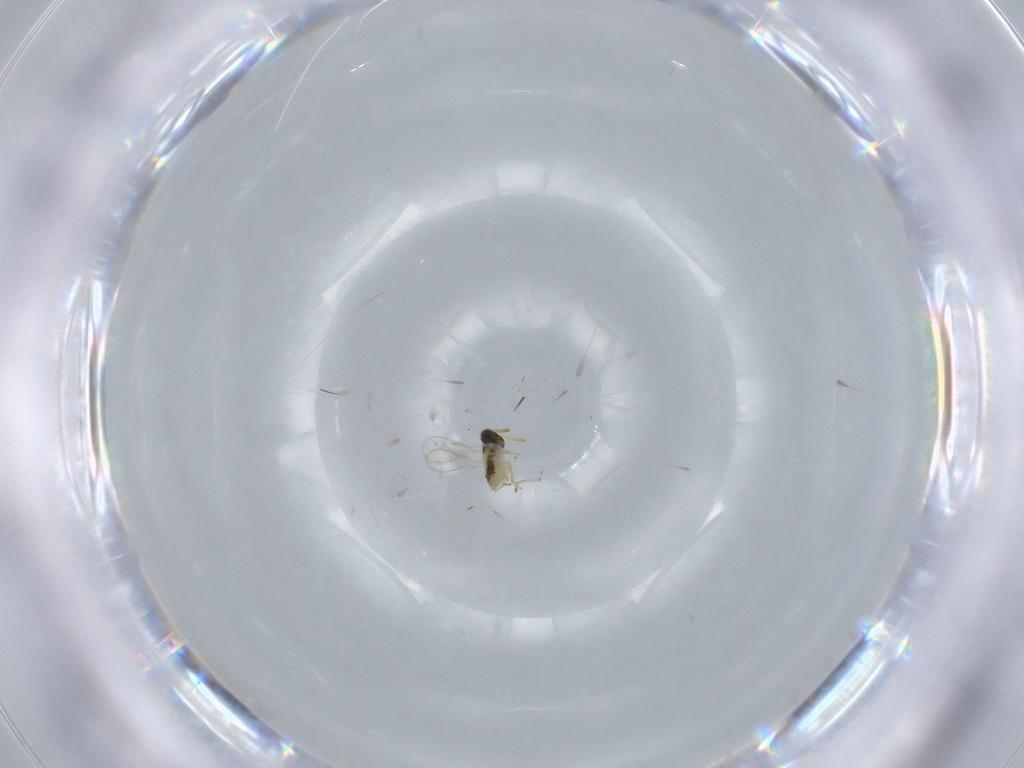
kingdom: Animalia
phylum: Arthropoda
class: Insecta
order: Hymenoptera
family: Aphelinidae
